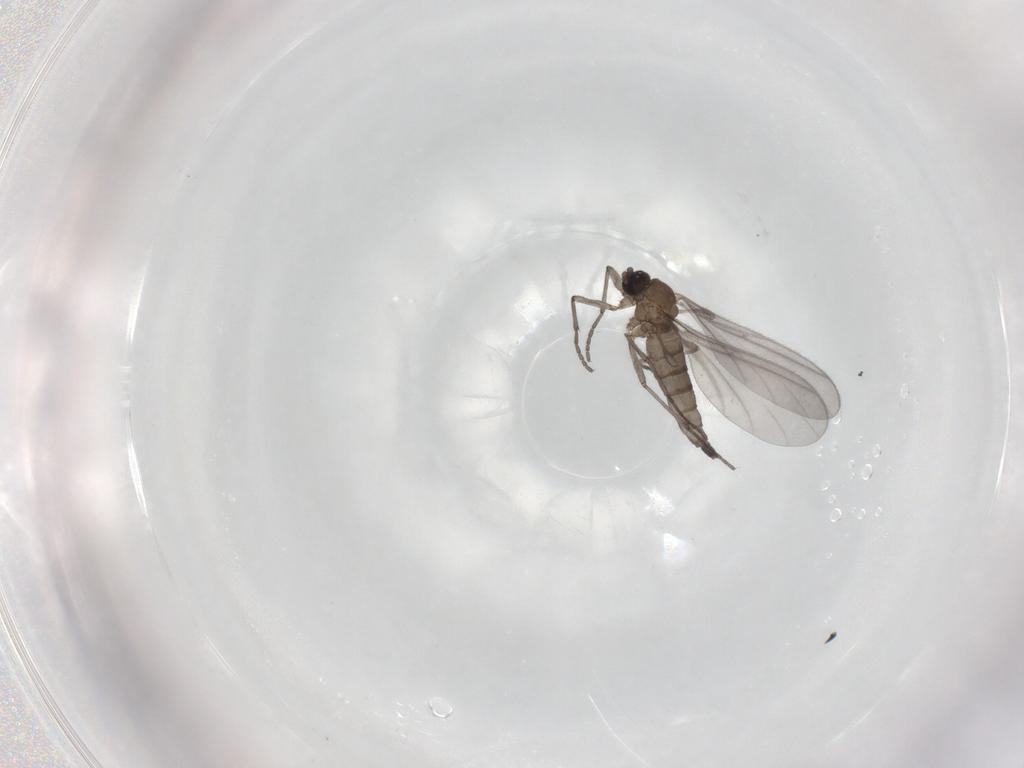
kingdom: Animalia
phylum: Arthropoda
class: Insecta
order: Diptera
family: Sciaridae
